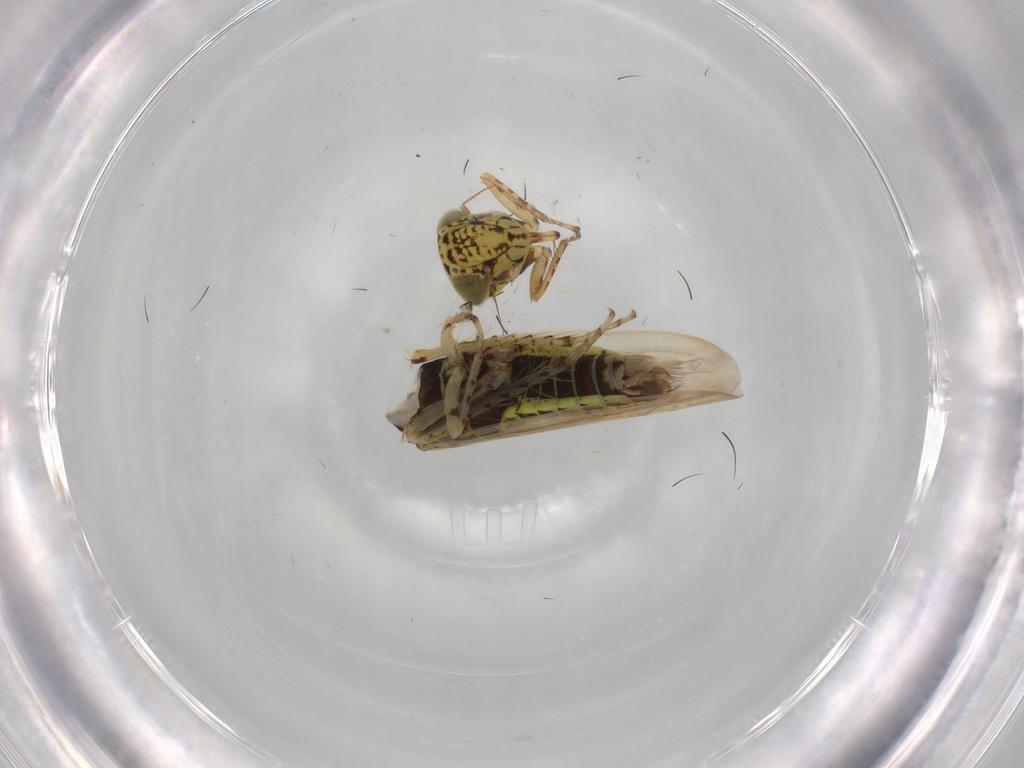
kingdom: Animalia
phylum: Arthropoda
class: Insecta
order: Hemiptera
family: Cicadellidae
